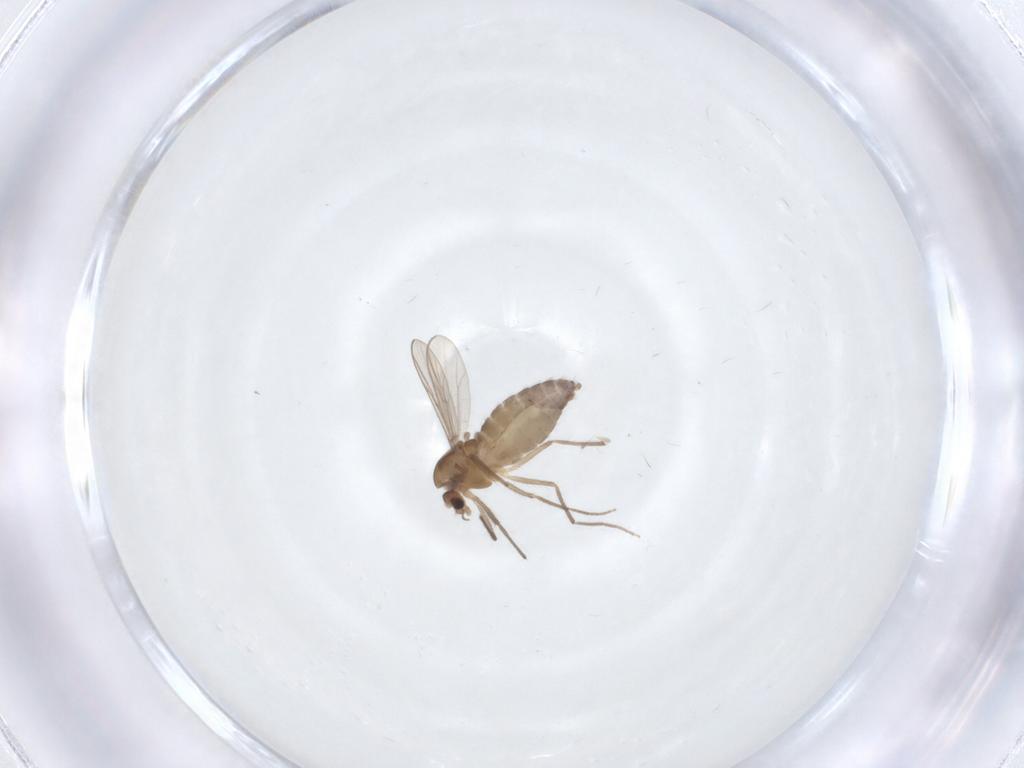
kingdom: Animalia
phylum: Arthropoda
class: Insecta
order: Diptera
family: Chironomidae
